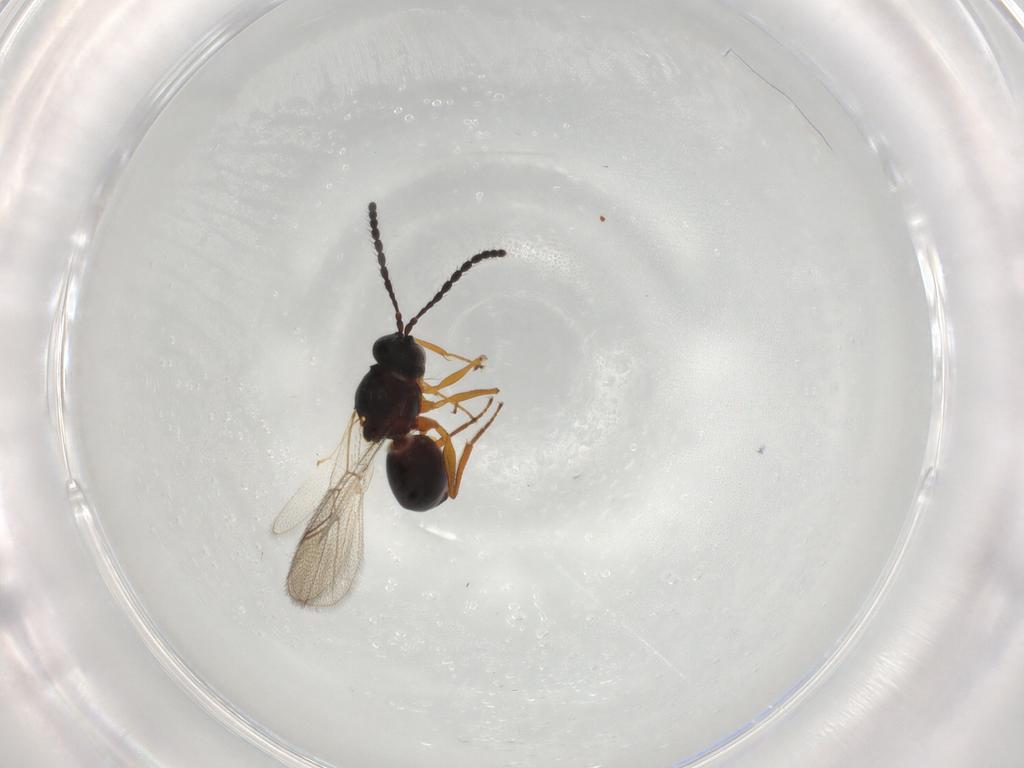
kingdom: Animalia
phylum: Arthropoda
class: Insecta
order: Hymenoptera
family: Figitidae
